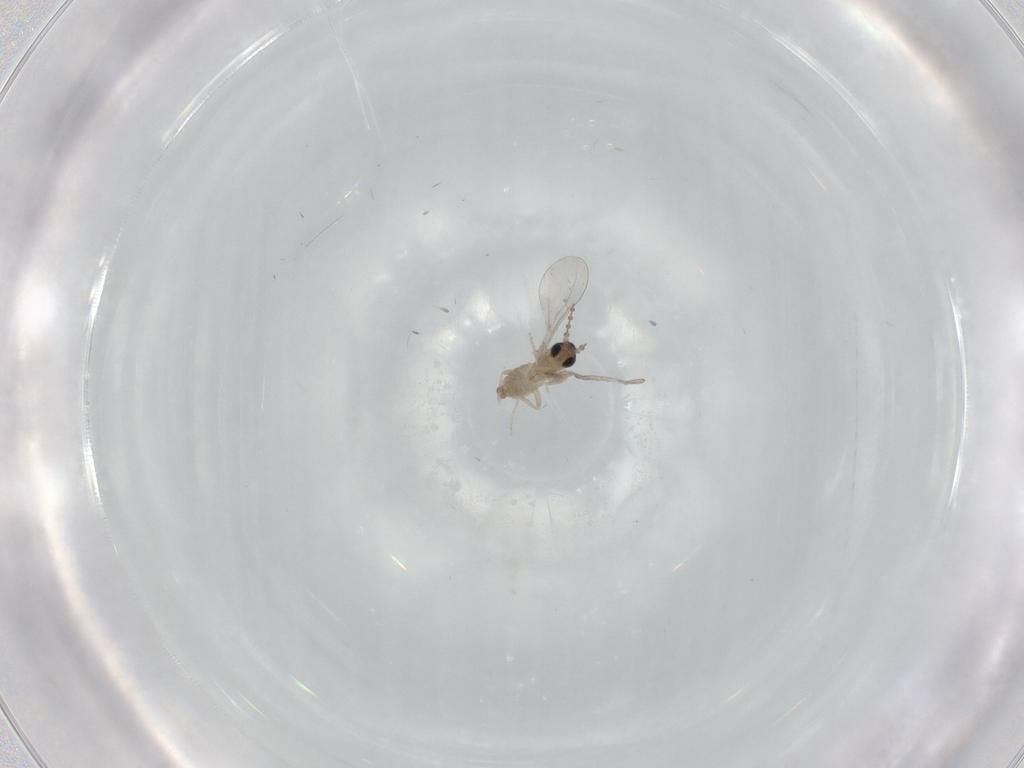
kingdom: Animalia
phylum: Arthropoda
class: Insecta
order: Diptera
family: Cecidomyiidae
